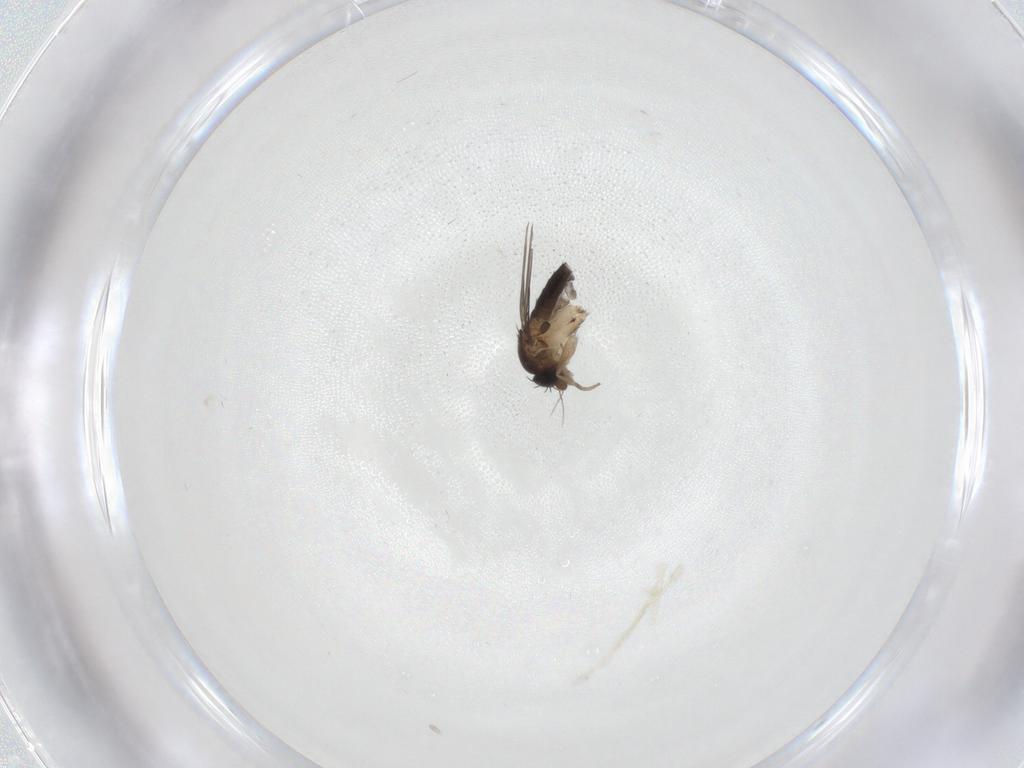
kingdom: Animalia
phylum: Arthropoda
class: Insecta
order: Diptera
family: Phoridae
